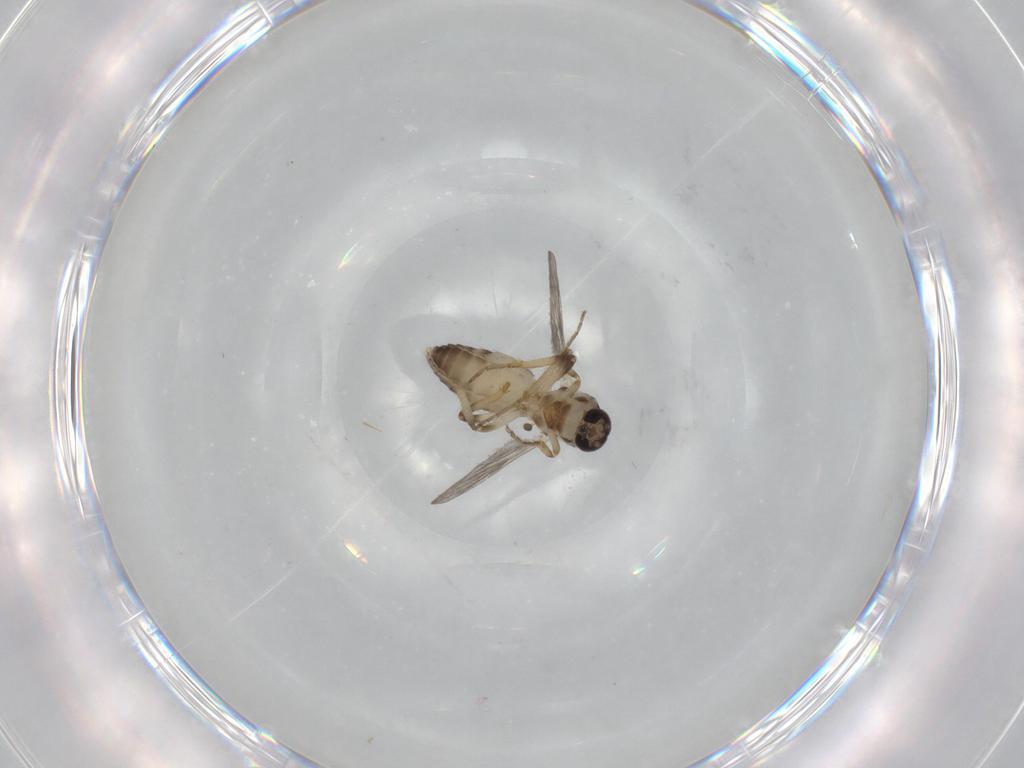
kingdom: Animalia
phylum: Arthropoda
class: Insecta
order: Diptera
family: Ceratopogonidae
